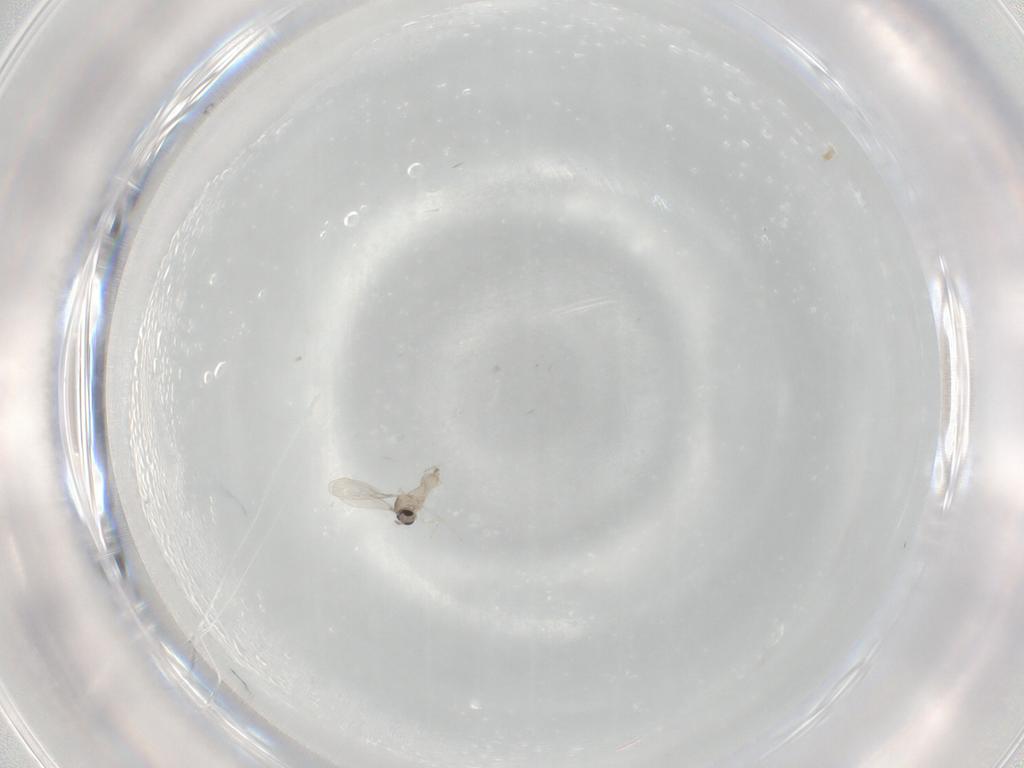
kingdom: Animalia
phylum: Arthropoda
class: Insecta
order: Diptera
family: Cecidomyiidae
